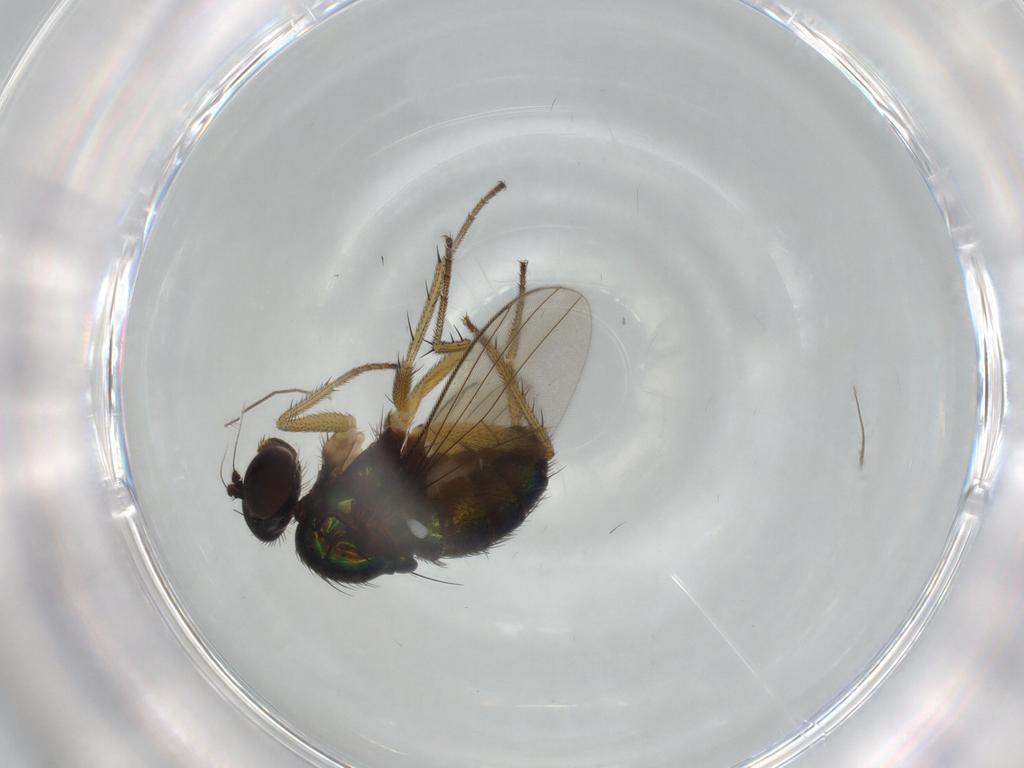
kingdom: Animalia
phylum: Arthropoda
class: Insecta
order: Diptera
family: Dolichopodidae
